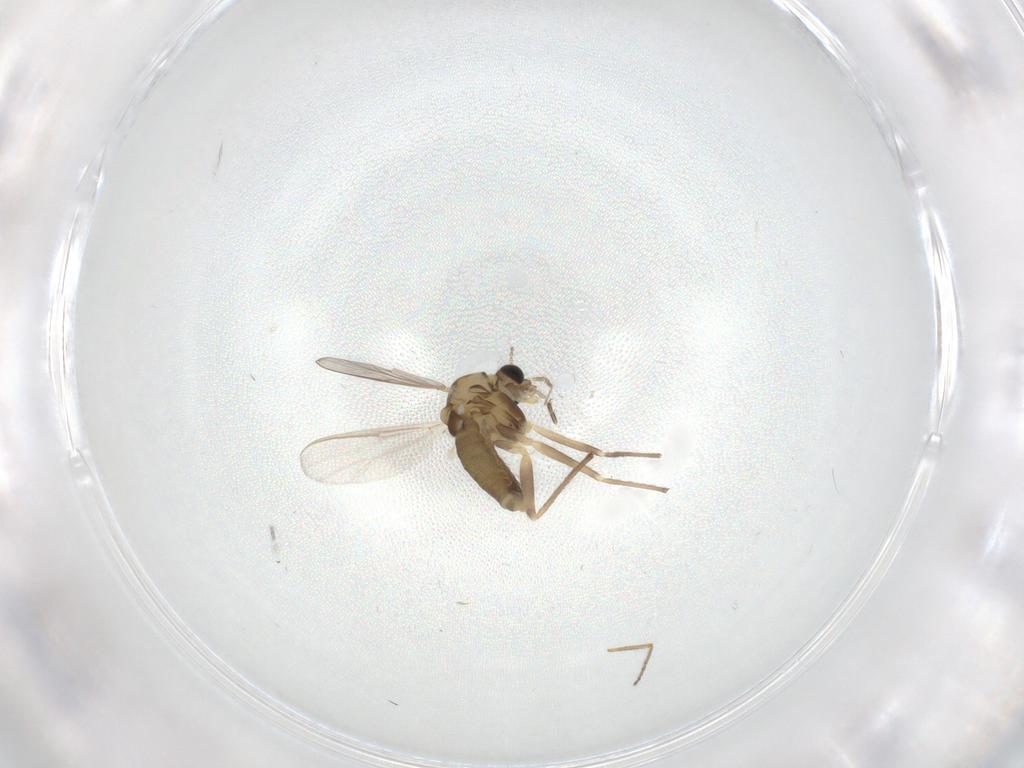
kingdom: Animalia
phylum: Arthropoda
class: Insecta
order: Diptera
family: Chironomidae
